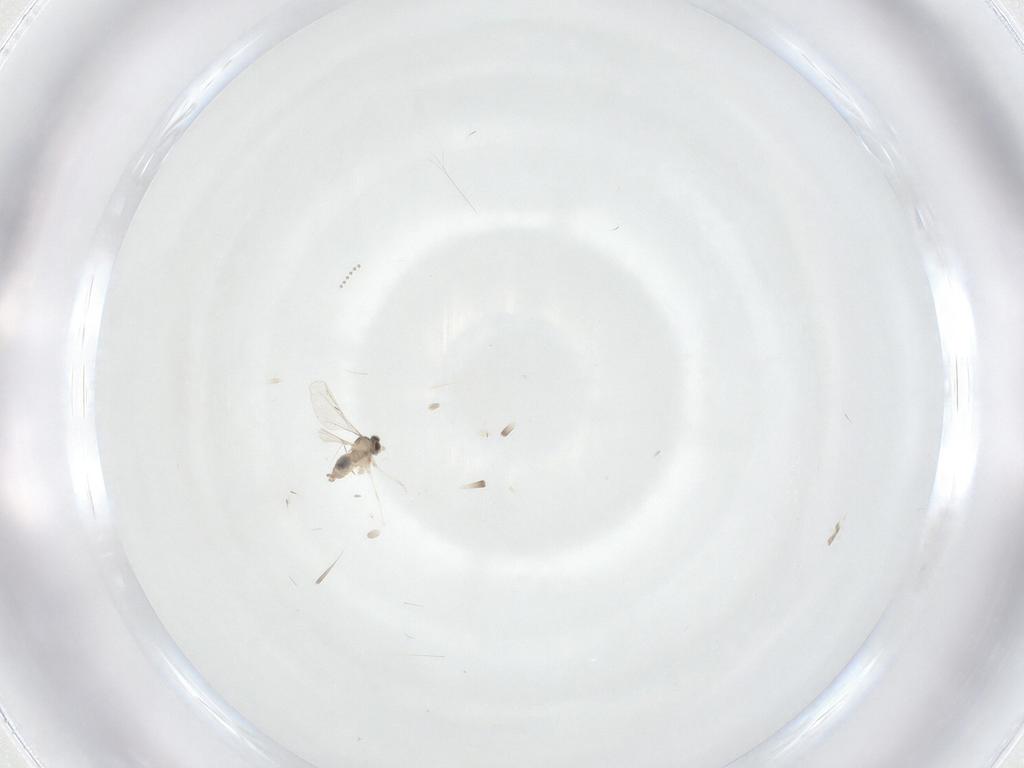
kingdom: Animalia
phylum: Arthropoda
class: Insecta
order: Diptera
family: Cecidomyiidae
